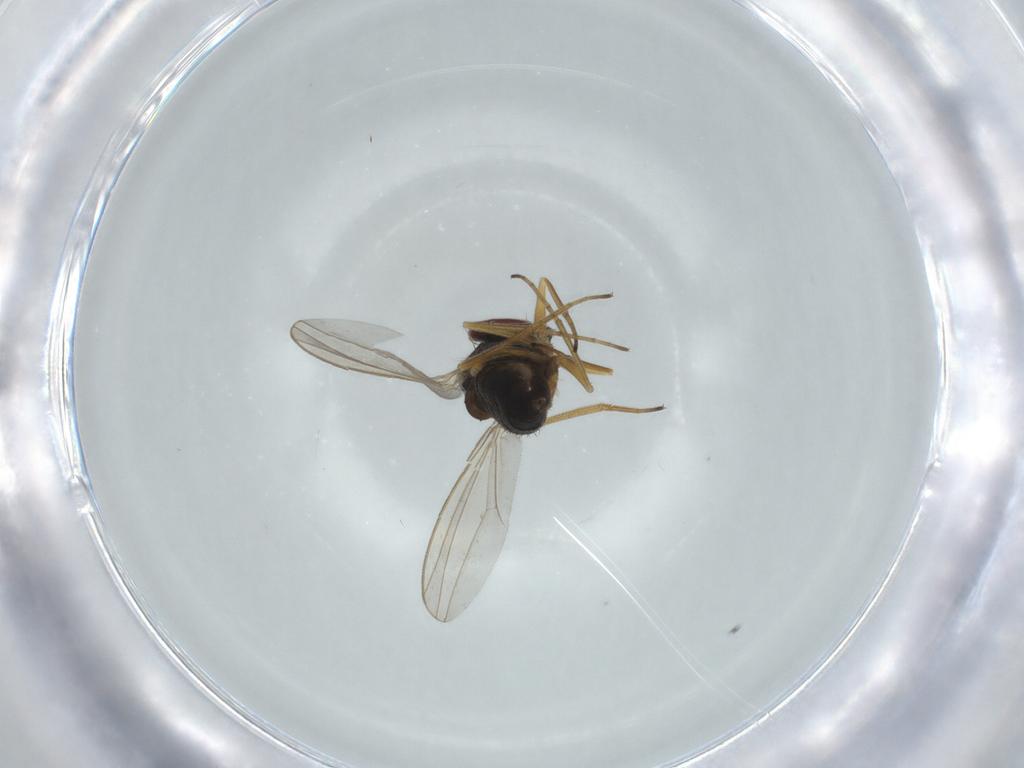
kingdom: Animalia
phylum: Arthropoda
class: Insecta
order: Diptera
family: Dolichopodidae
